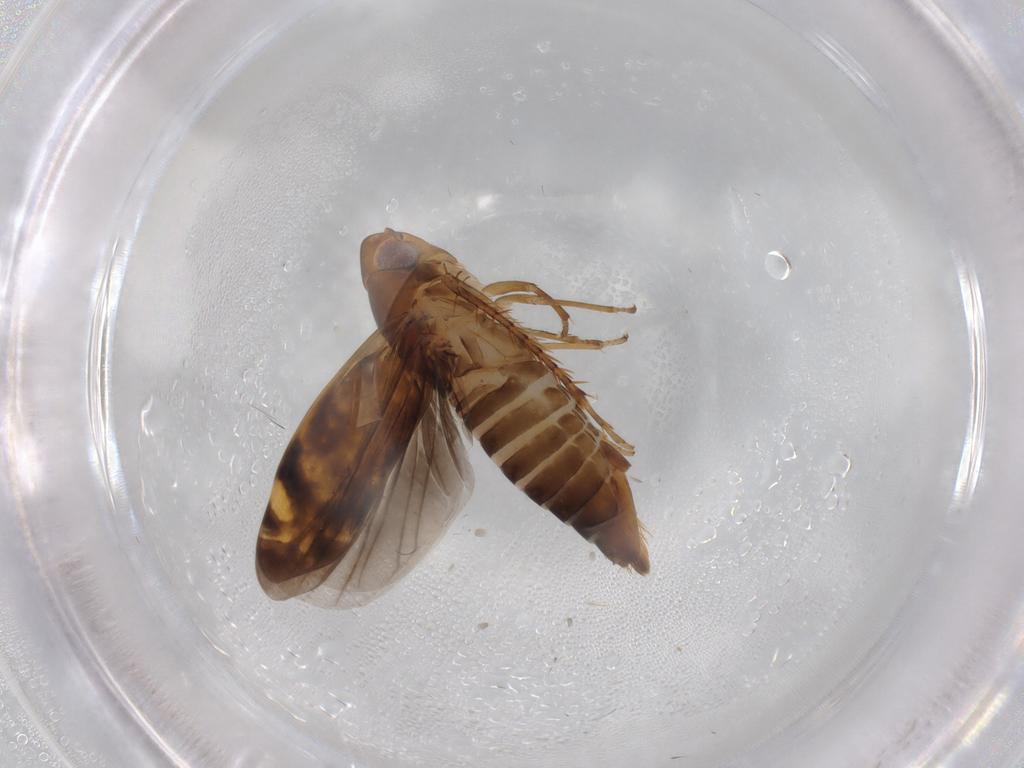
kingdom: Animalia
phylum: Arthropoda
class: Insecta
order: Hemiptera
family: Cicadellidae
